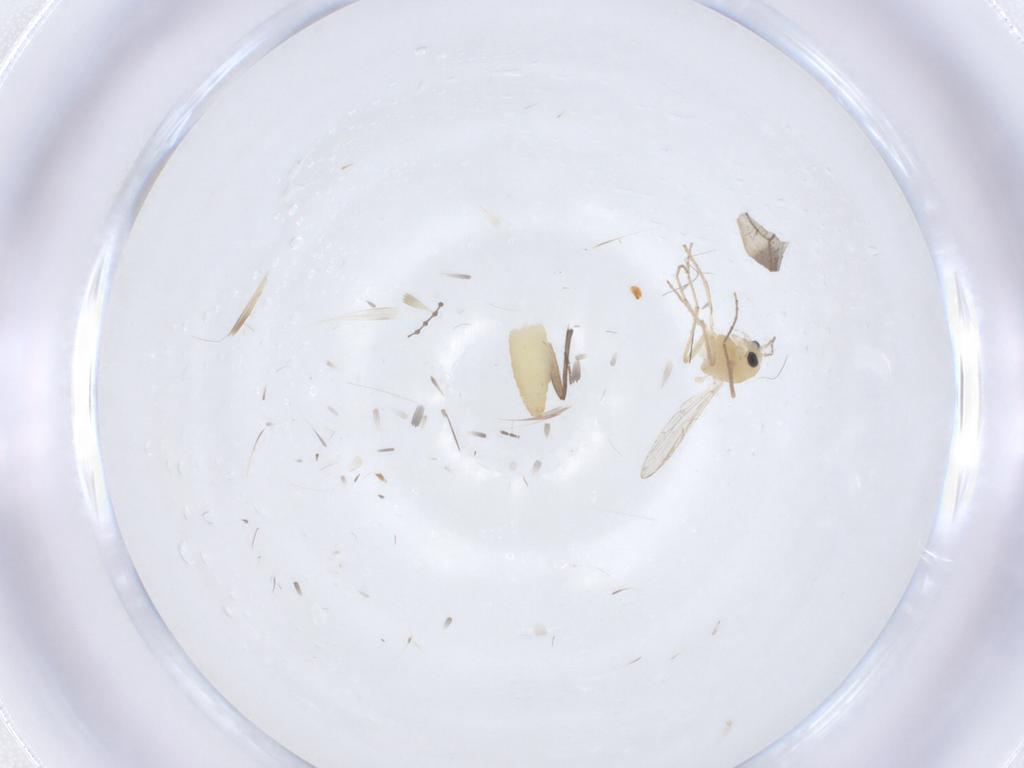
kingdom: Animalia
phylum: Arthropoda
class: Insecta
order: Diptera
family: Chironomidae
